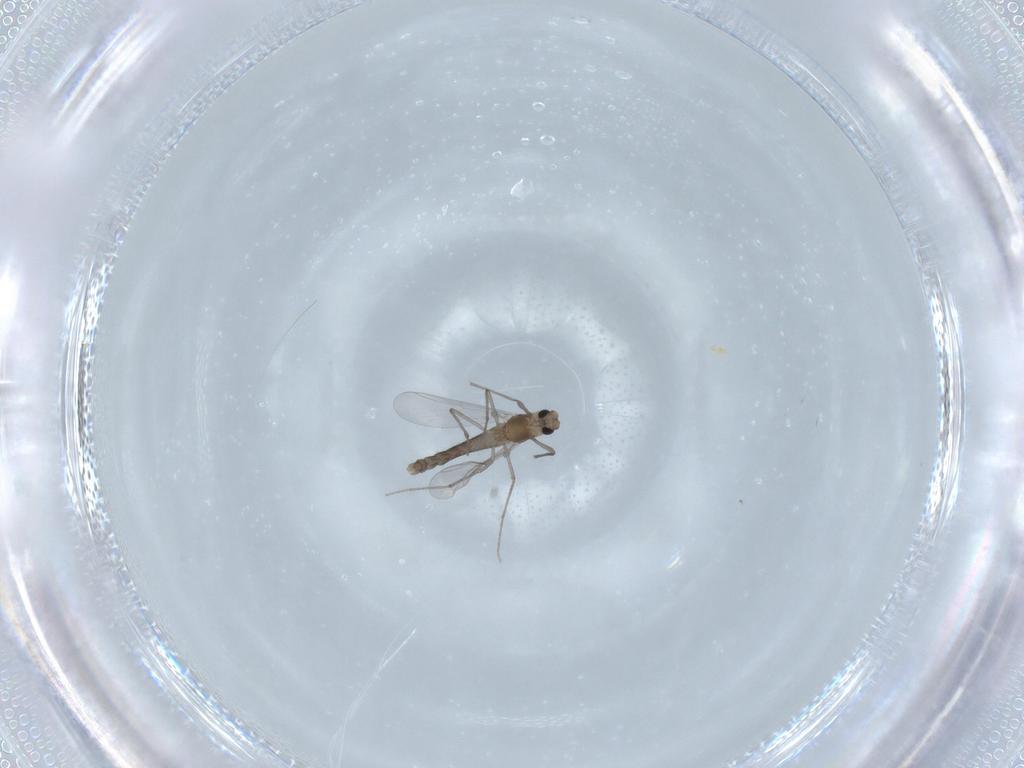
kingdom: Animalia
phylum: Arthropoda
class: Insecta
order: Diptera
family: Chironomidae
